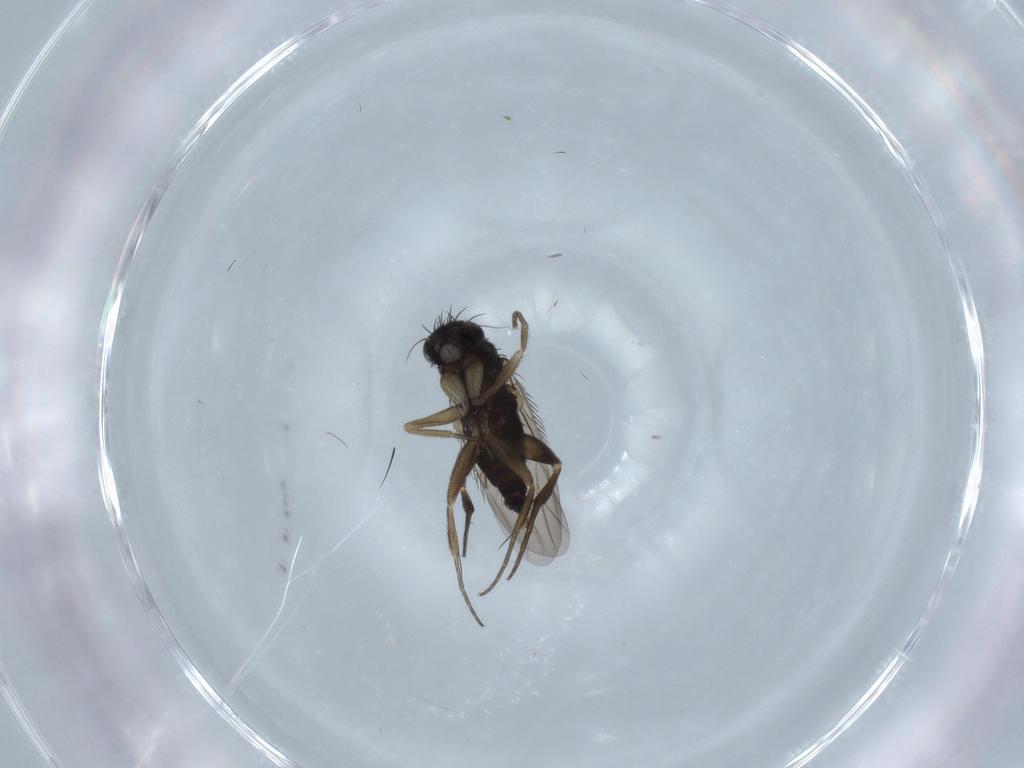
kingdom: Animalia
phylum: Arthropoda
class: Insecta
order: Diptera
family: Phoridae
